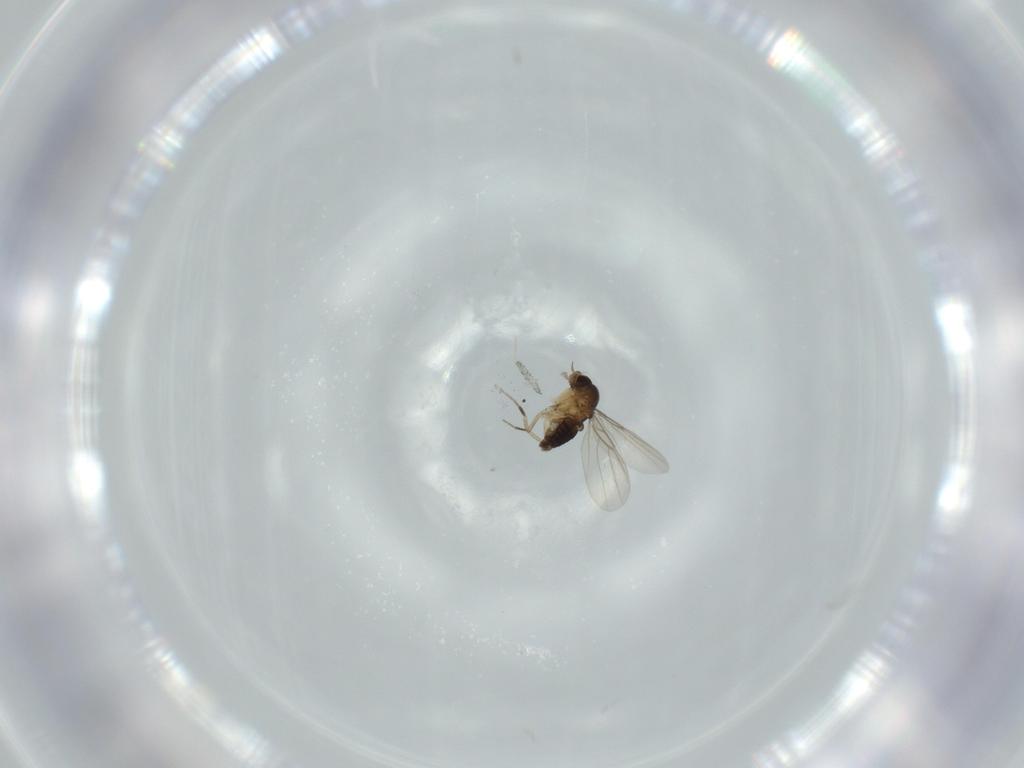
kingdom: Animalia
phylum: Arthropoda
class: Insecta
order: Diptera
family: Phoridae
